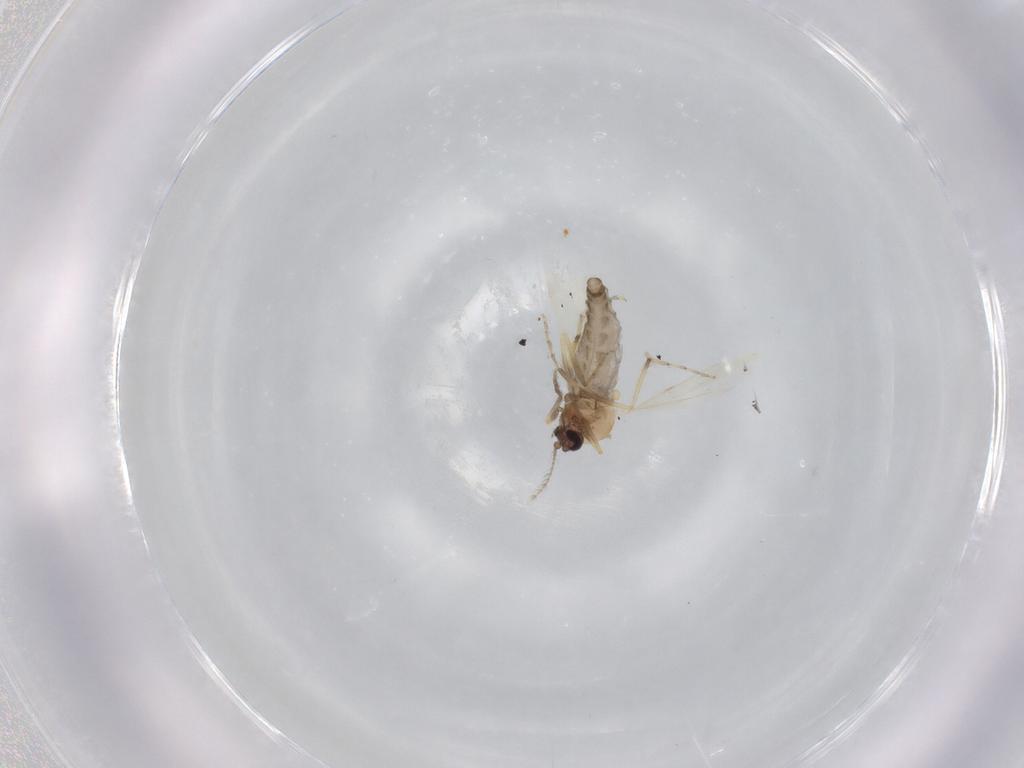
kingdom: Animalia
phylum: Arthropoda
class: Insecta
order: Diptera
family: Ceratopogonidae
